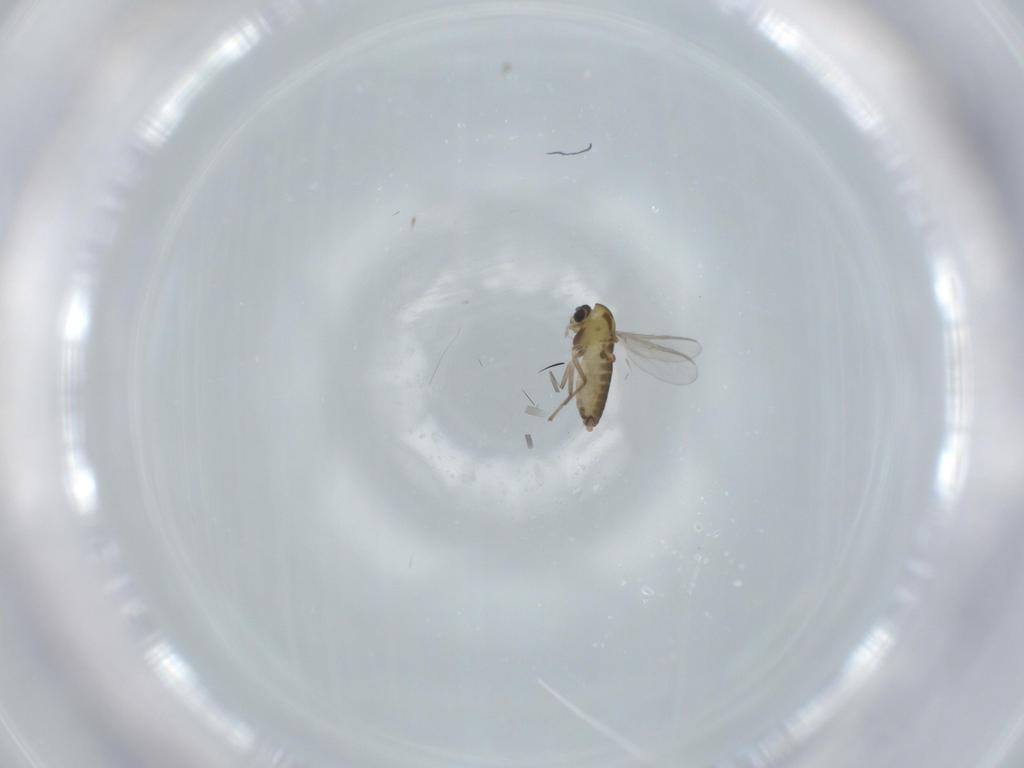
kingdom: Animalia
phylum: Arthropoda
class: Insecta
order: Diptera
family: Chironomidae
